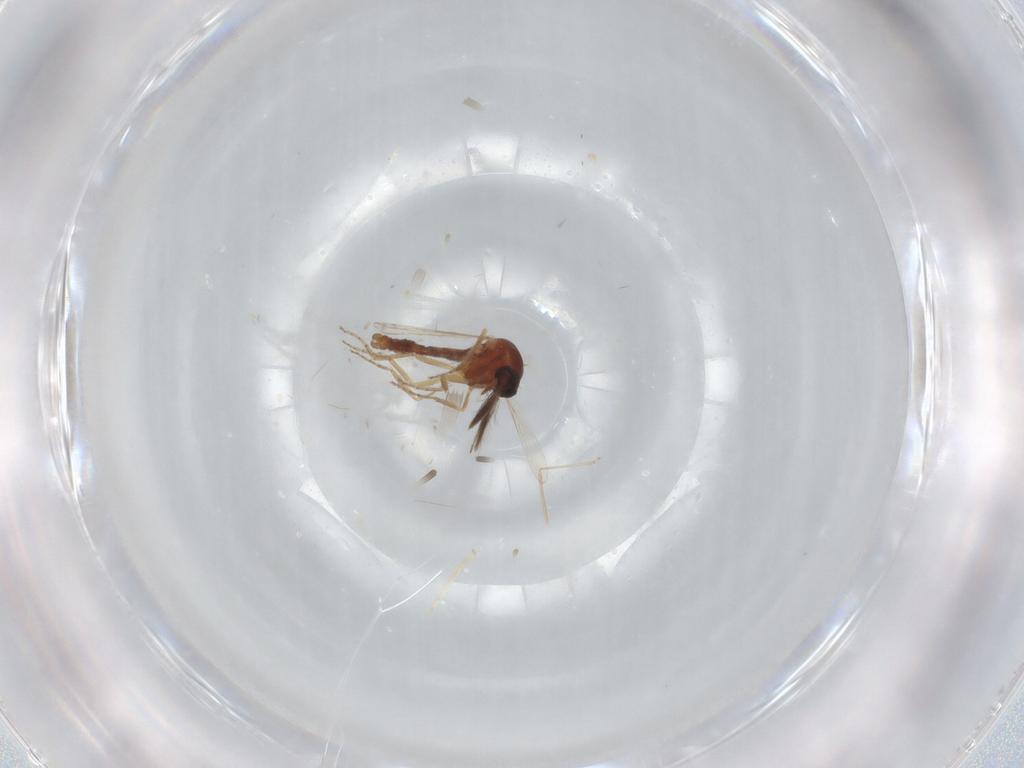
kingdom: Animalia
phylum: Arthropoda
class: Insecta
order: Diptera
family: Ceratopogonidae
